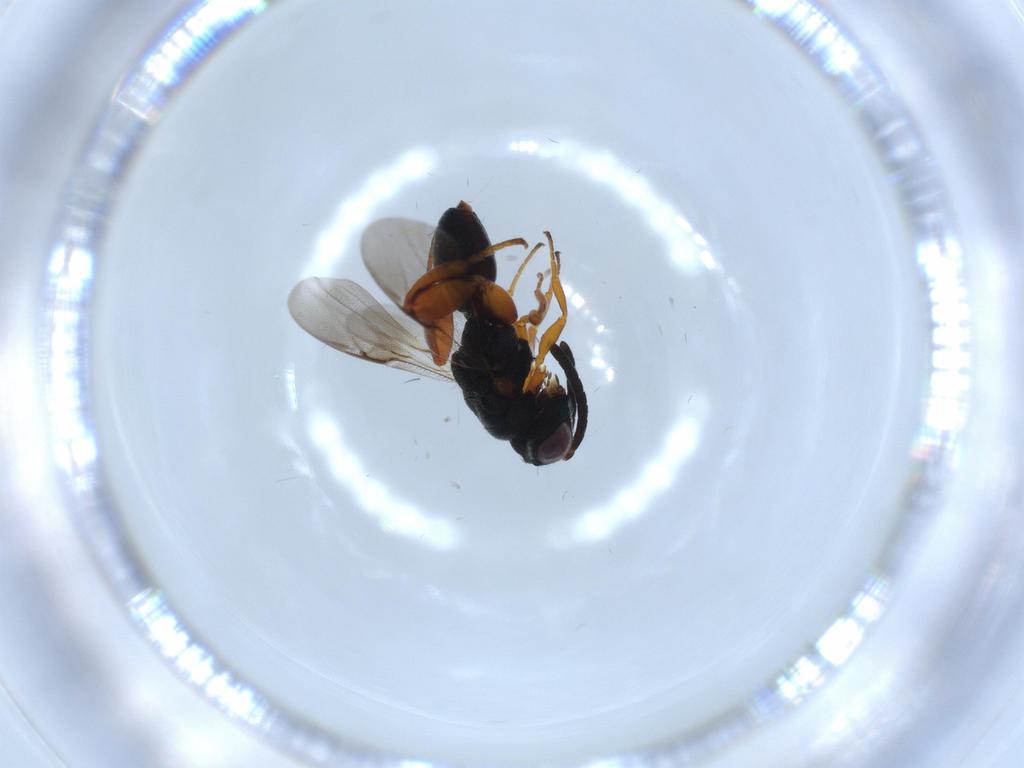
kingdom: Animalia
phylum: Arthropoda
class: Insecta
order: Hymenoptera
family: Chalcididae
